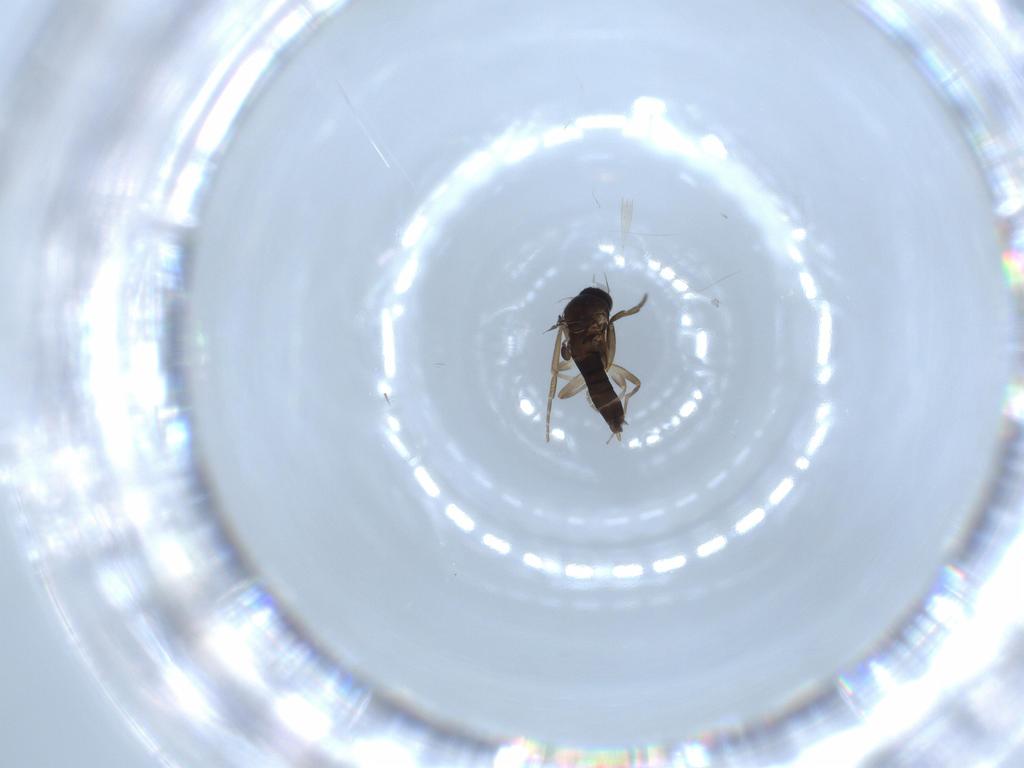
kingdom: Animalia
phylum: Arthropoda
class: Insecta
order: Diptera
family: Phoridae
